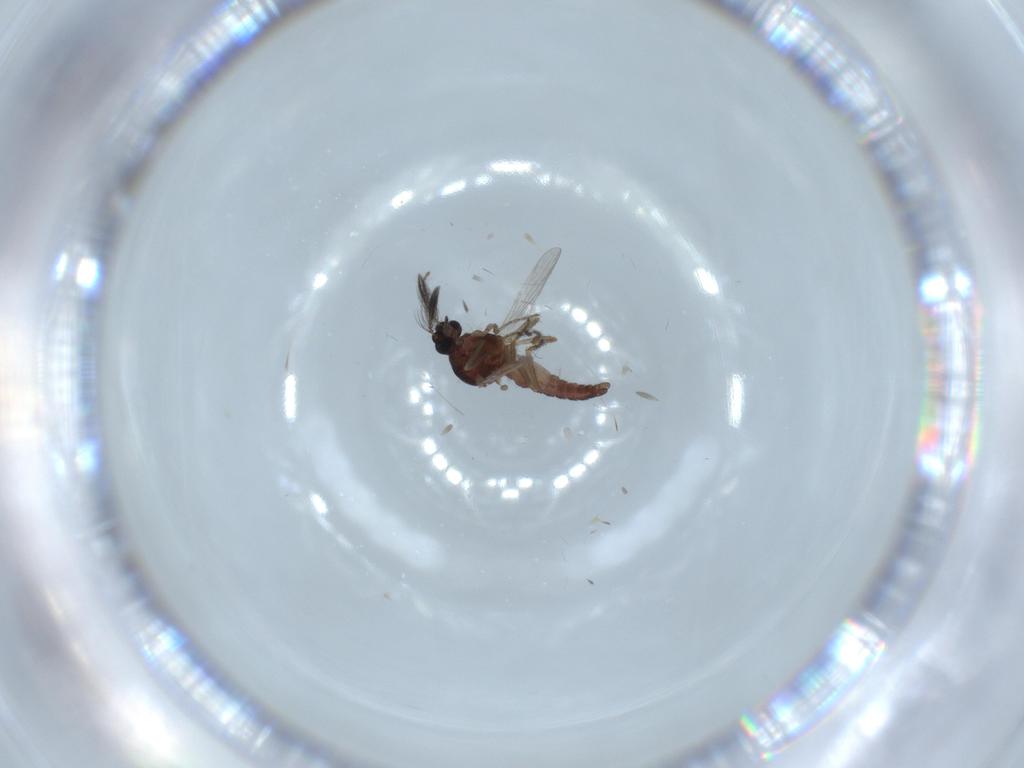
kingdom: Animalia
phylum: Arthropoda
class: Insecta
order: Diptera
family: Ceratopogonidae
